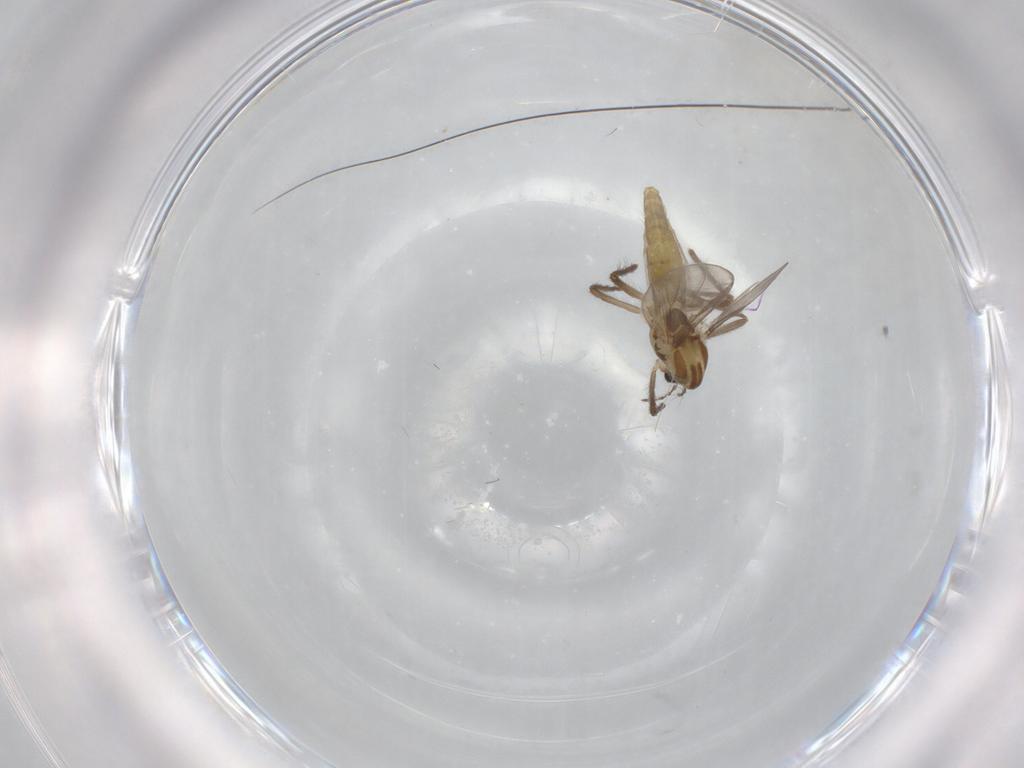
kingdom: Animalia
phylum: Arthropoda
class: Insecta
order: Diptera
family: Chironomidae
